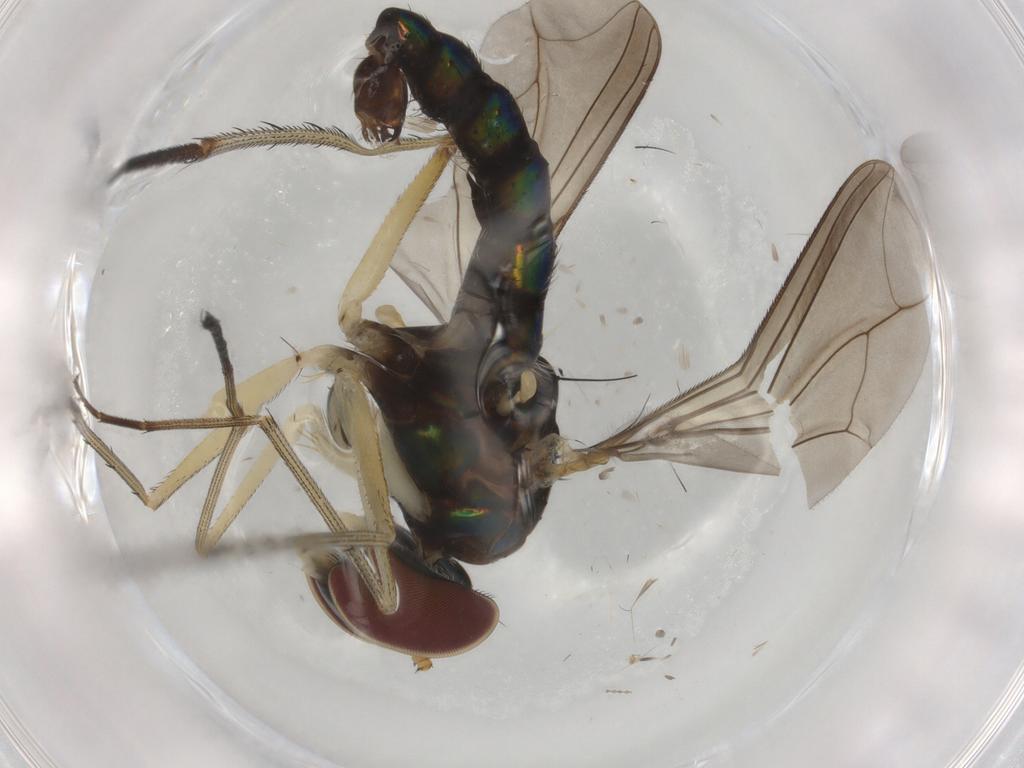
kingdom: Animalia
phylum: Arthropoda
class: Insecta
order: Diptera
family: Dolichopodidae
